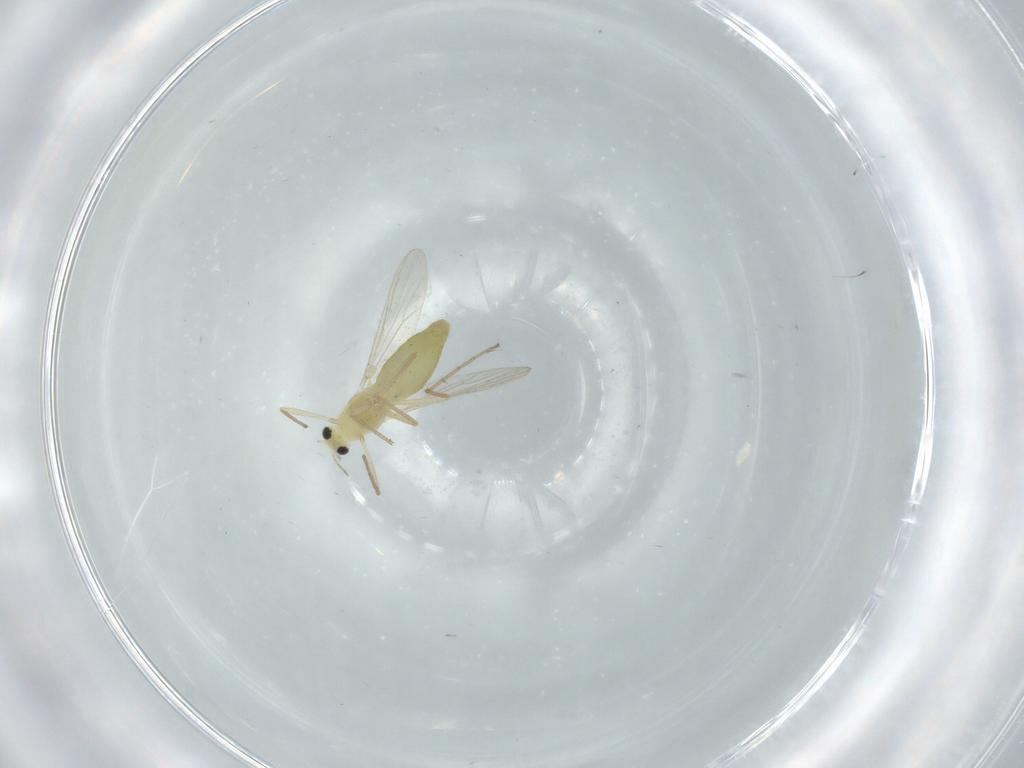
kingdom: Animalia
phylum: Arthropoda
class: Insecta
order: Diptera
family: Chironomidae
